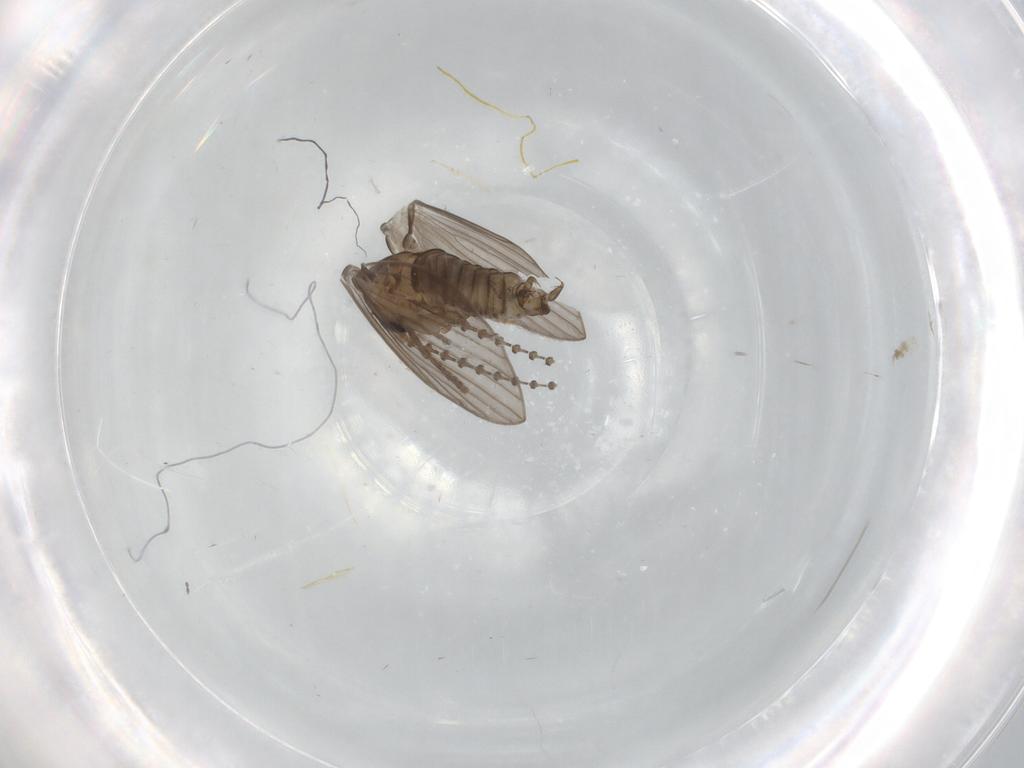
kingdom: Animalia
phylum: Arthropoda
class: Insecta
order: Diptera
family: Psychodidae
